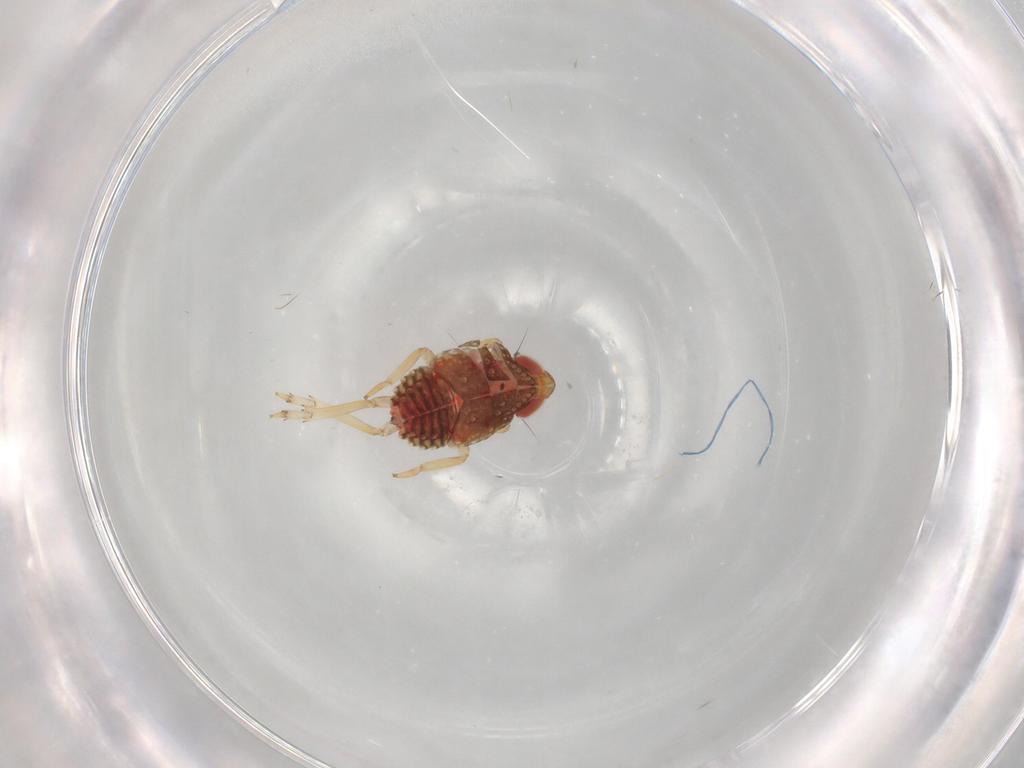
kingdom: Animalia
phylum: Arthropoda
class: Insecta
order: Hemiptera
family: Issidae
